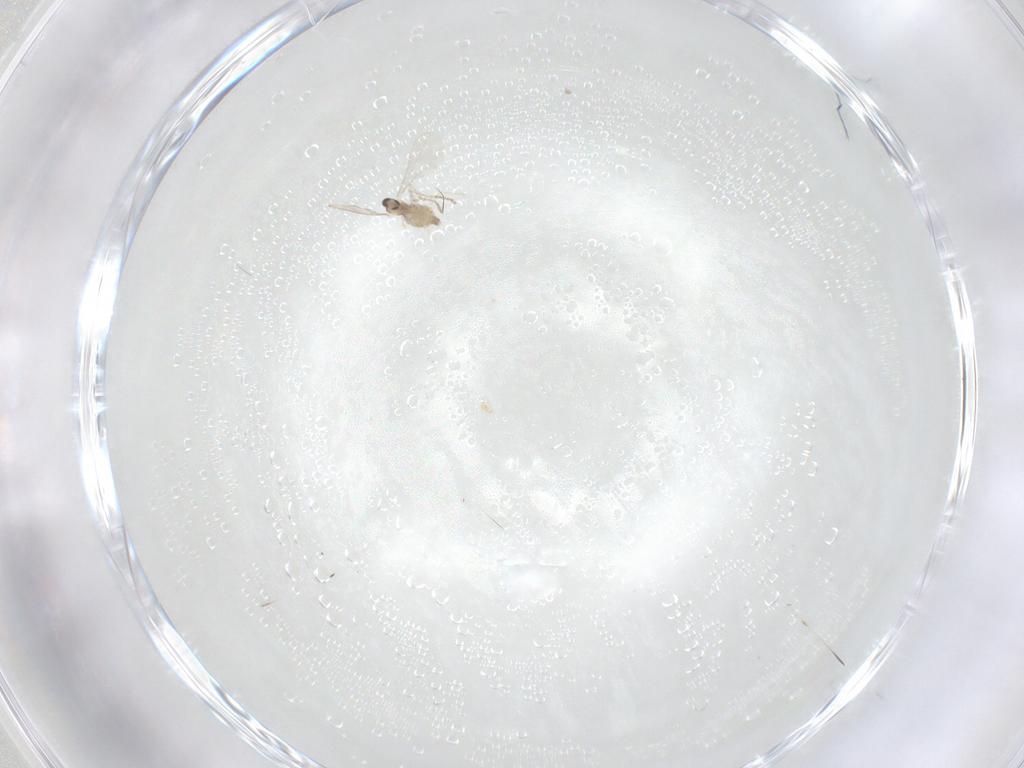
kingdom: Animalia
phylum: Arthropoda
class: Insecta
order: Diptera
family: Cecidomyiidae
